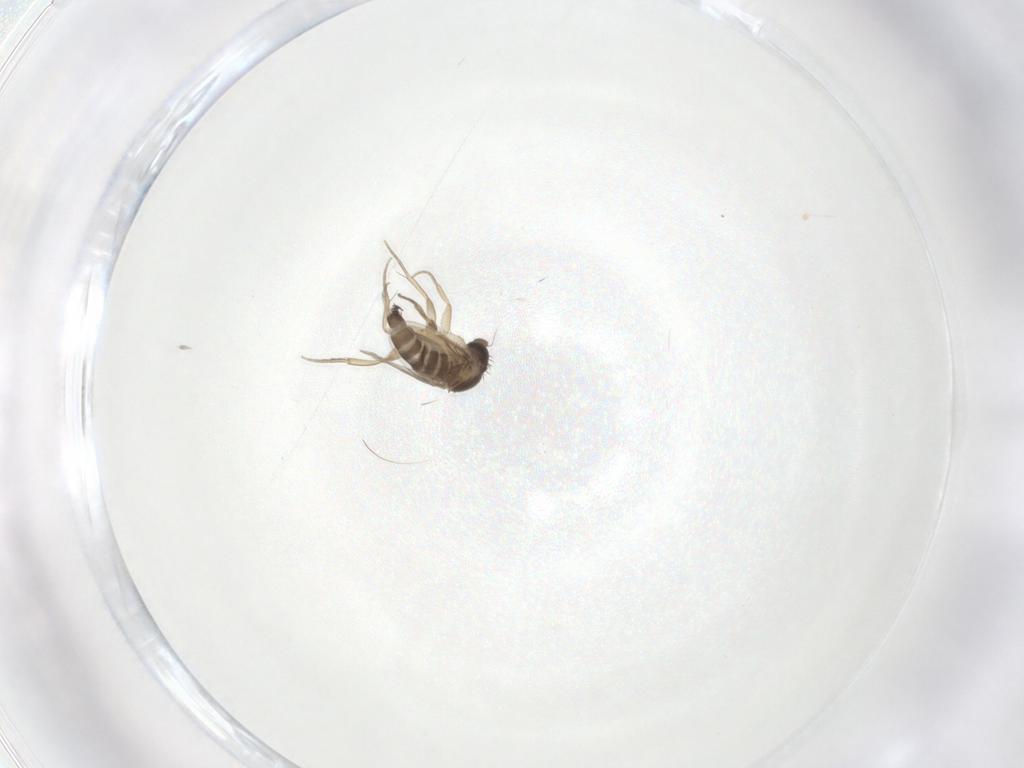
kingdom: Animalia
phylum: Arthropoda
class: Insecta
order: Diptera
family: Phoridae
